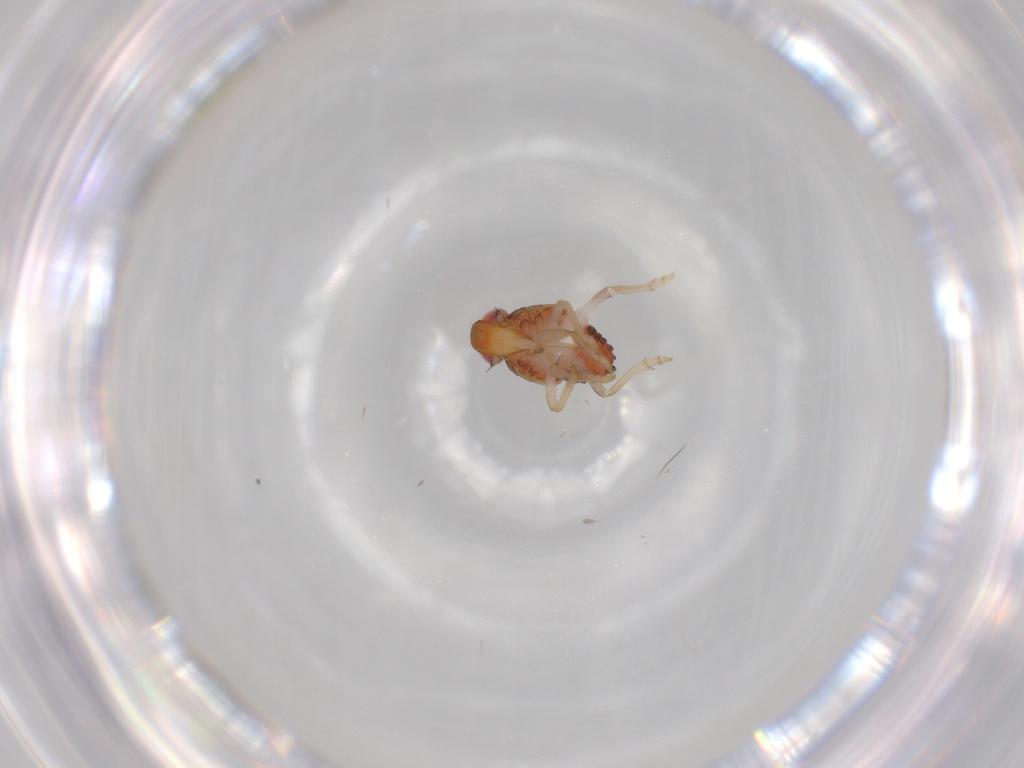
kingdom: Animalia
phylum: Arthropoda
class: Insecta
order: Hemiptera
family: Issidae
